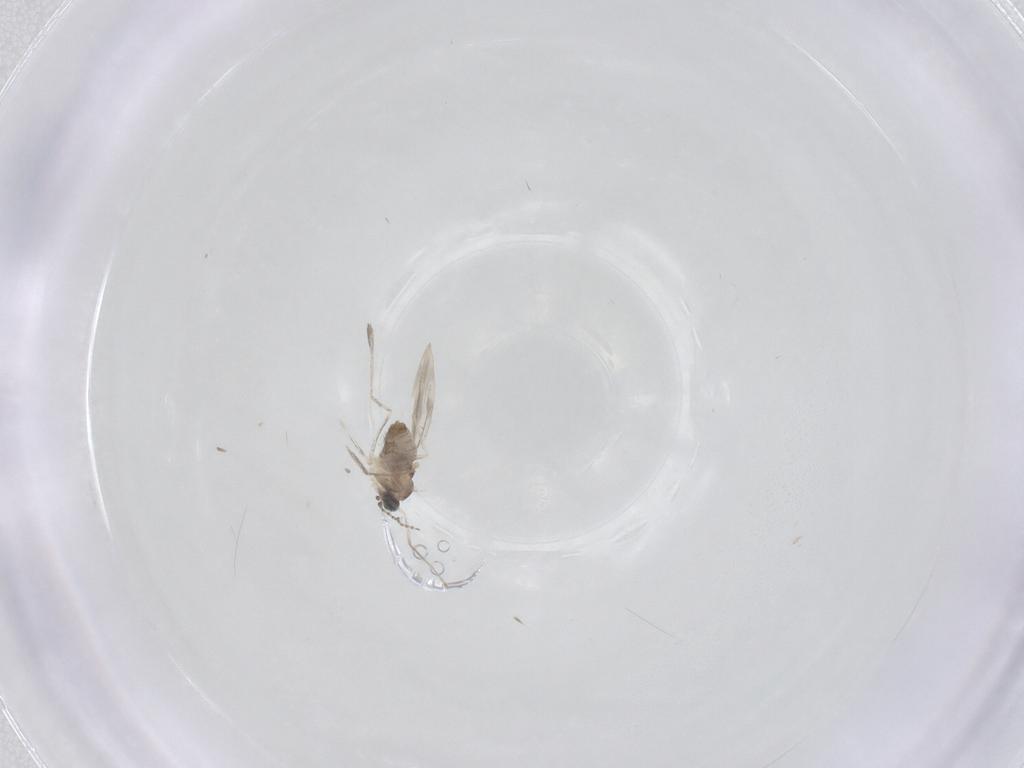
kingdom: Animalia
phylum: Arthropoda
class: Insecta
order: Diptera
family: Cecidomyiidae
